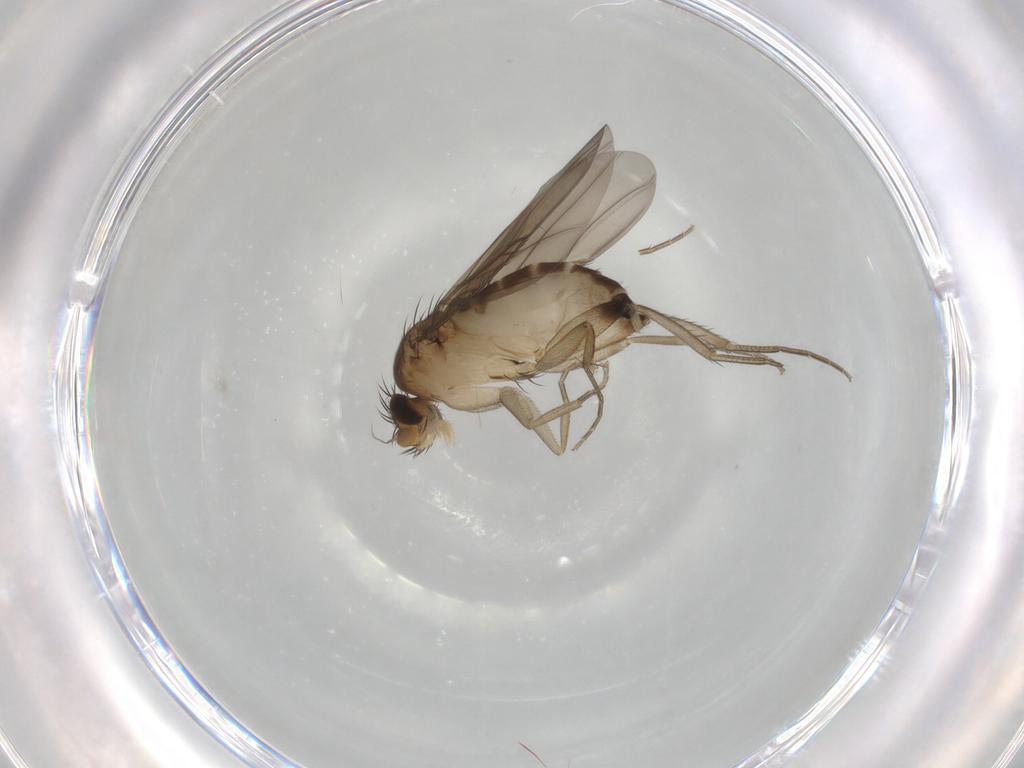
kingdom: Animalia
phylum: Arthropoda
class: Insecta
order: Diptera
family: Phoridae
